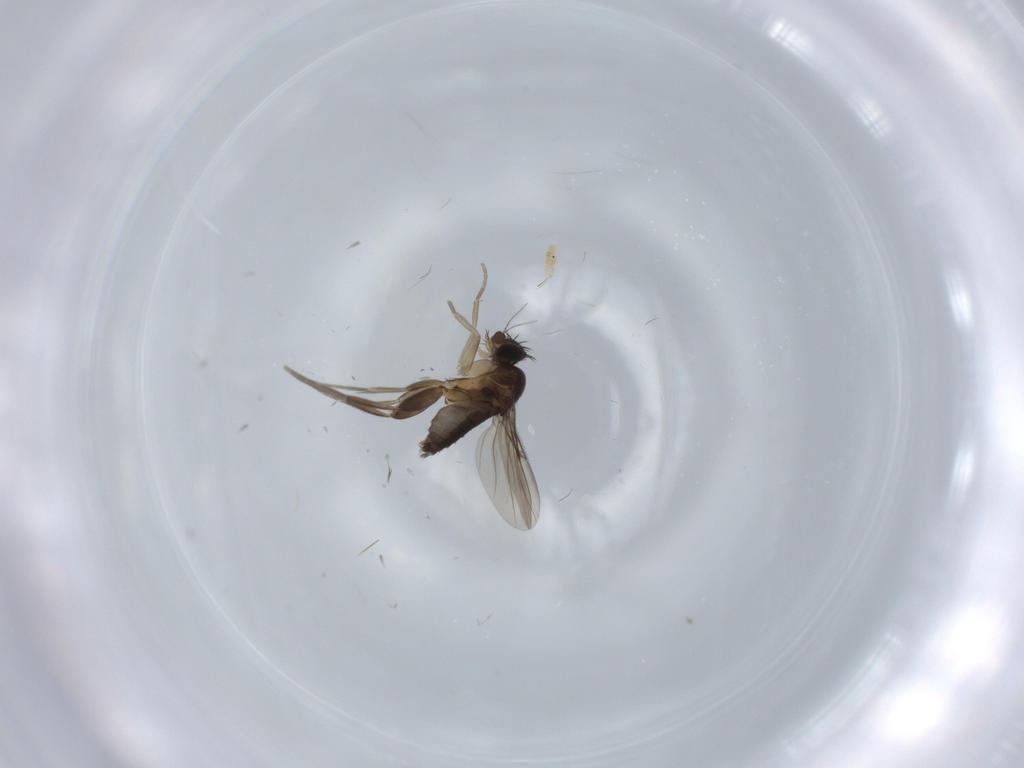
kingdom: Animalia
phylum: Arthropoda
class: Insecta
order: Diptera
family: Phoridae
